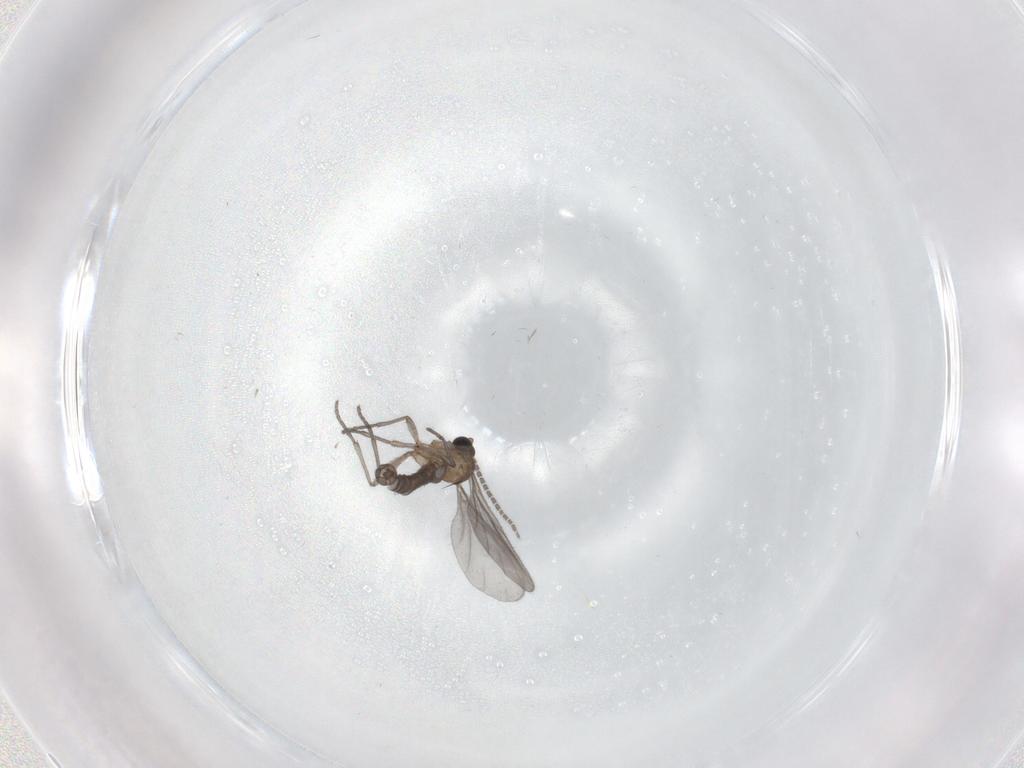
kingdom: Animalia
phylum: Arthropoda
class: Insecta
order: Diptera
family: Sciaridae
